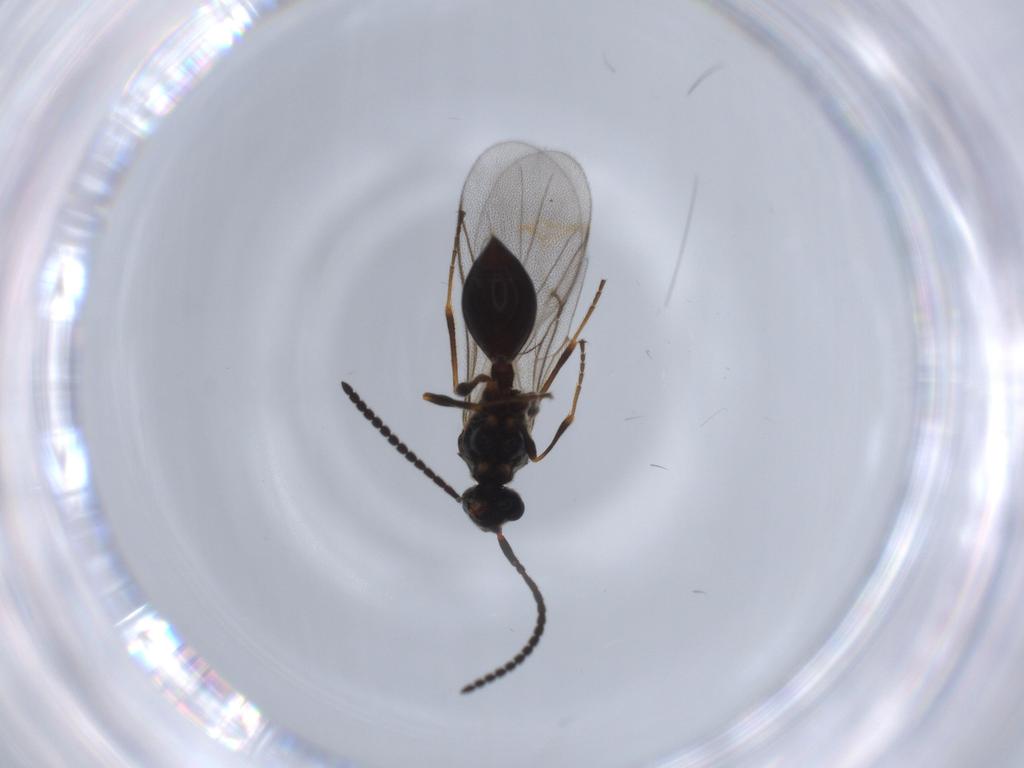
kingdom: Animalia
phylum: Arthropoda
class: Insecta
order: Hymenoptera
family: Diapriidae
